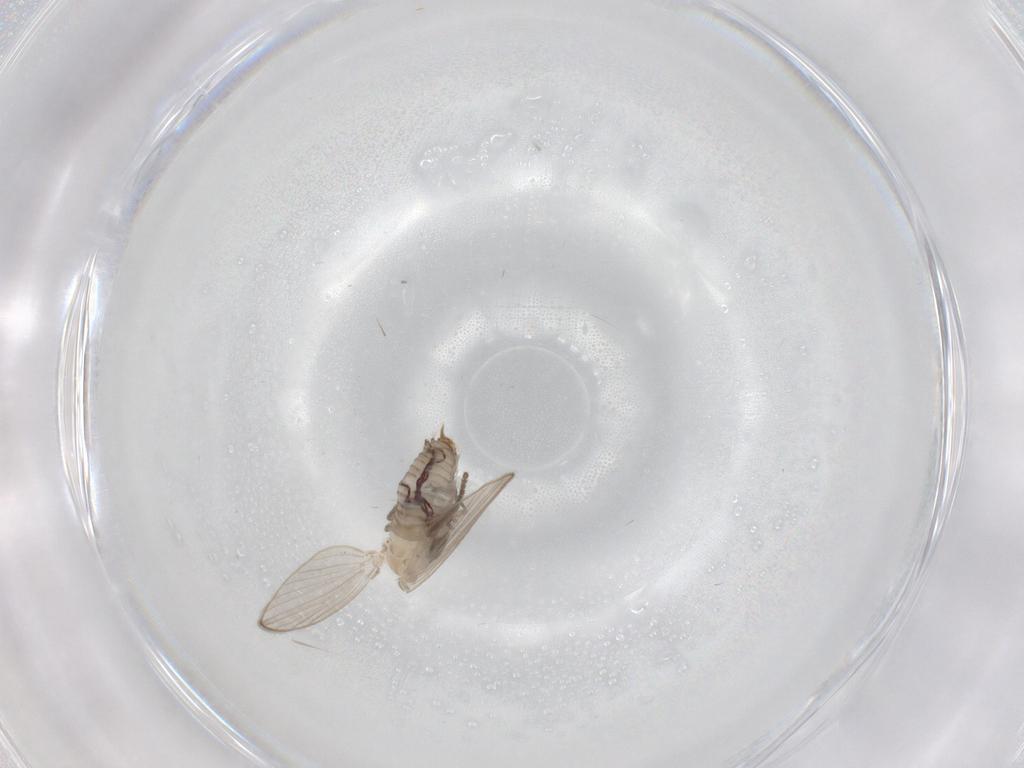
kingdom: Animalia
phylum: Arthropoda
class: Insecta
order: Diptera
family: Psychodidae
